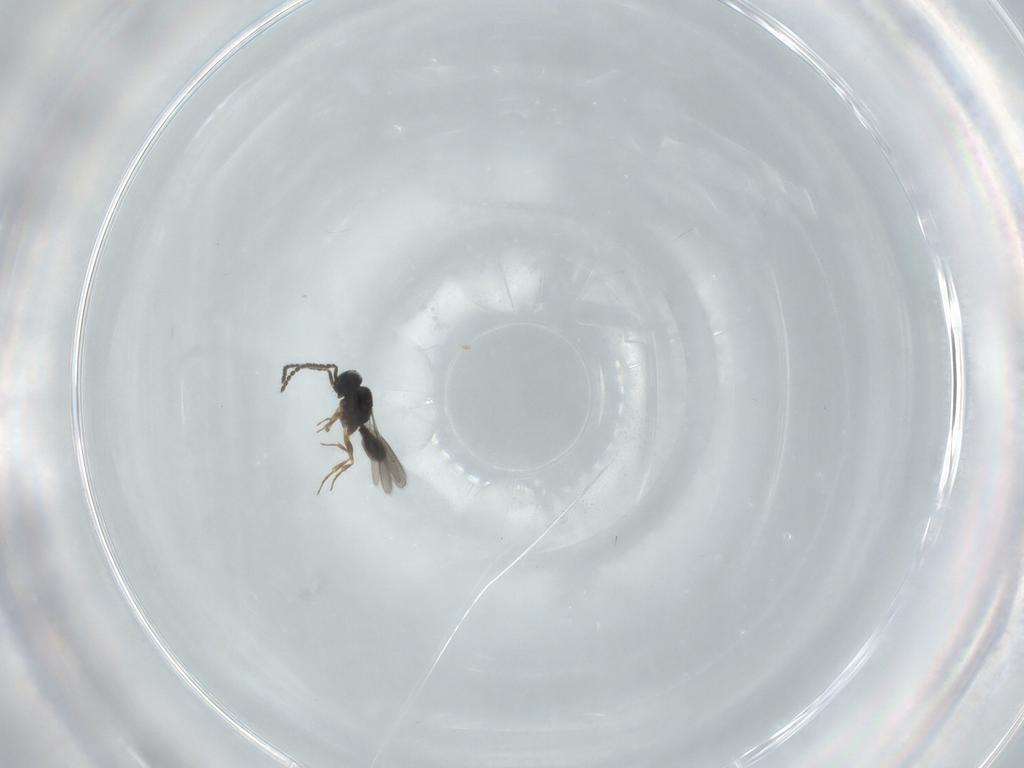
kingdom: Animalia
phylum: Arthropoda
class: Insecta
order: Hymenoptera
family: Scelionidae
